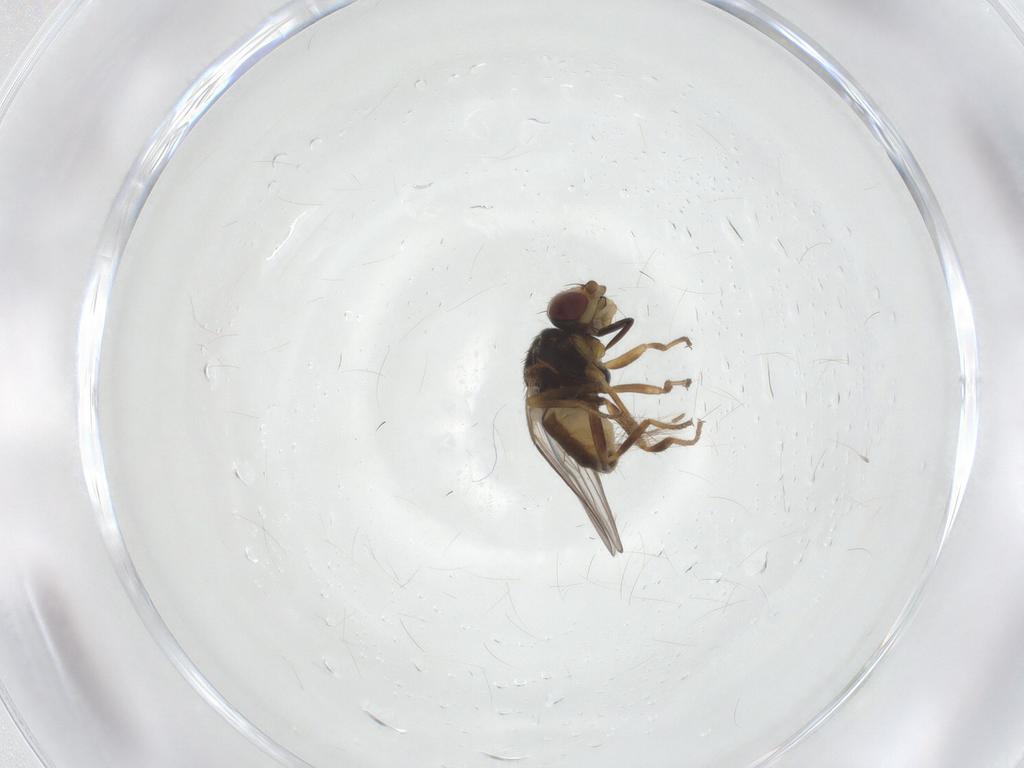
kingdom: Animalia
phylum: Arthropoda
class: Insecta
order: Diptera
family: Chloropidae
